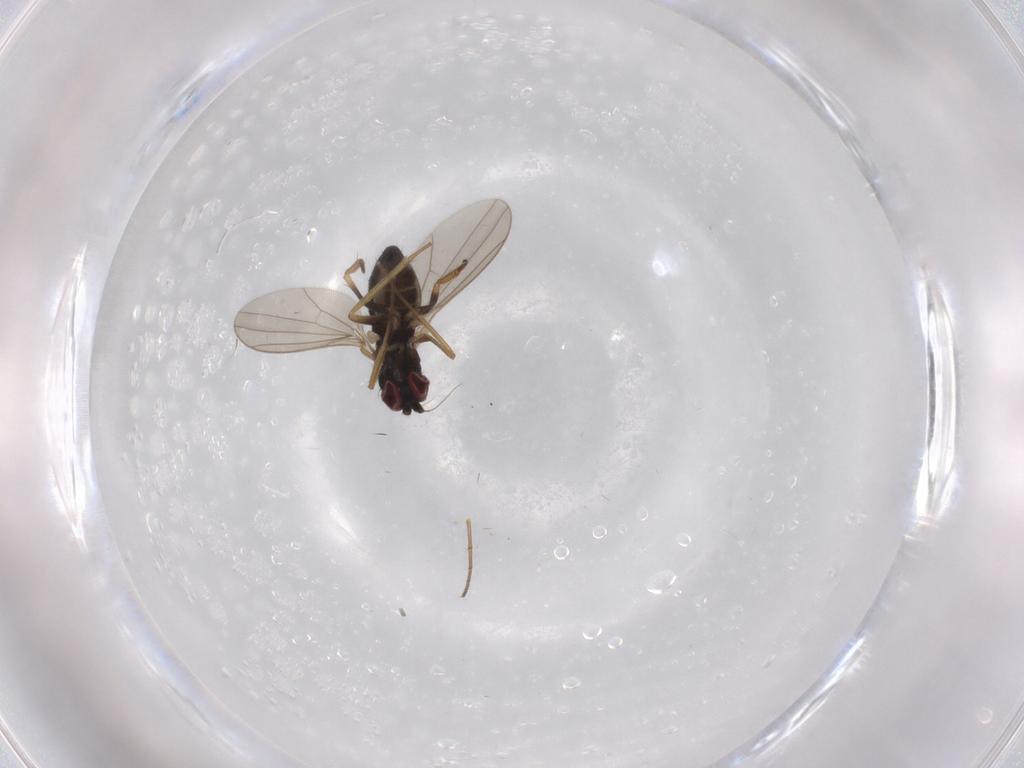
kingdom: Animalia
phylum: Arthropoda
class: Insecta
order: Diptera
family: Dolichopodidae
